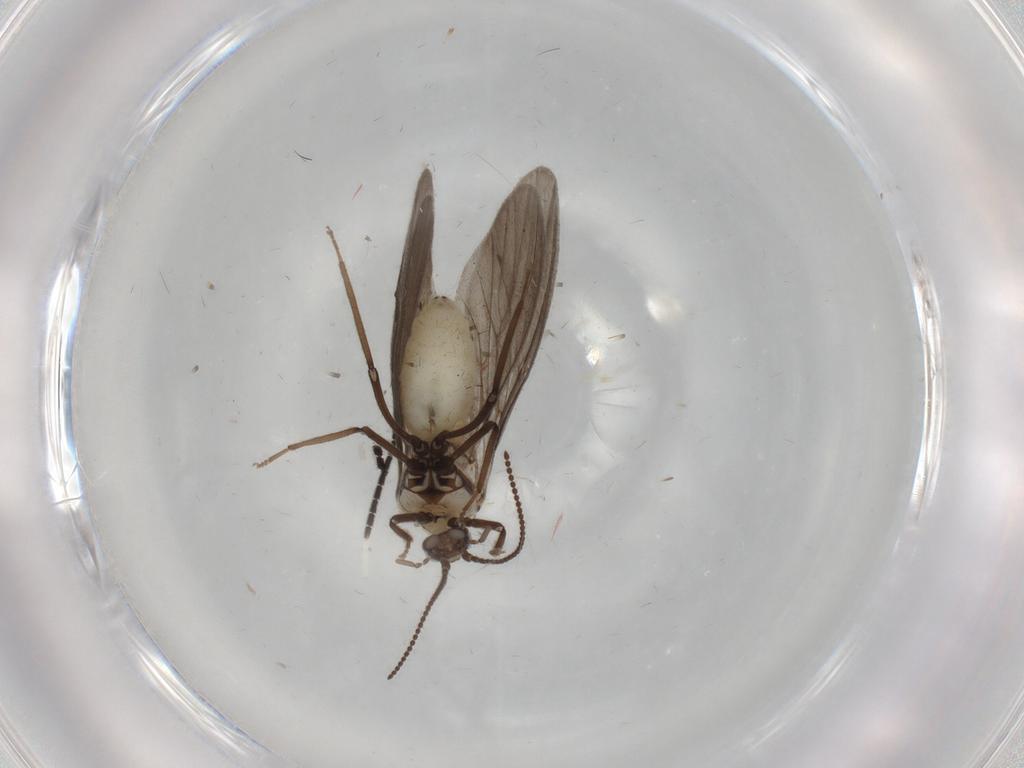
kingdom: Animalia
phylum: Arthropoda
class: Insecta
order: Neuroptera
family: Coniopterygidae
